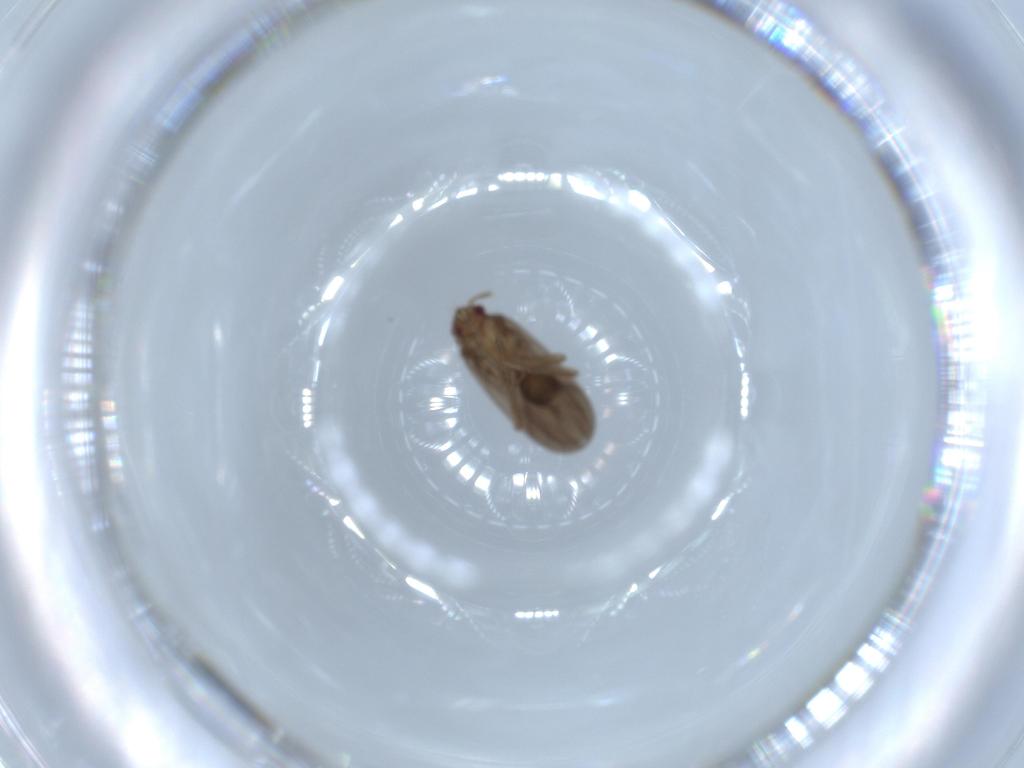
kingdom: Animalia
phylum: Arthropoda
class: Insecta
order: Hemiptera
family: Ceratocombidae
